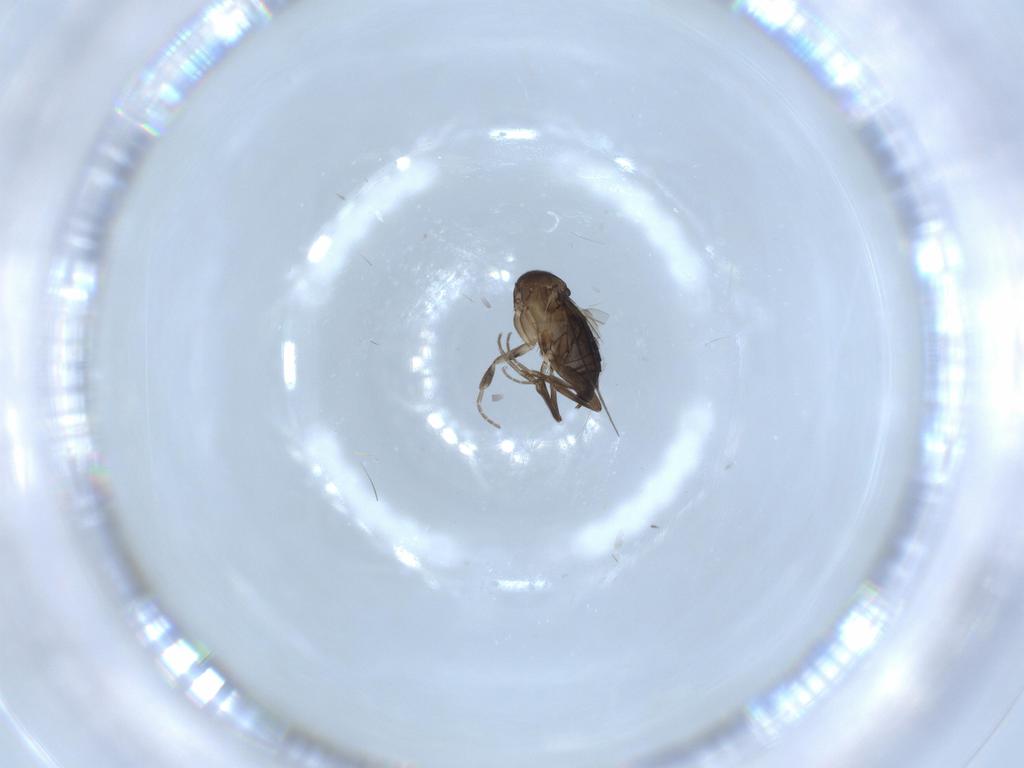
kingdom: Animalia
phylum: Arthropoda
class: Insecta
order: Diptera
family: Phoridae
